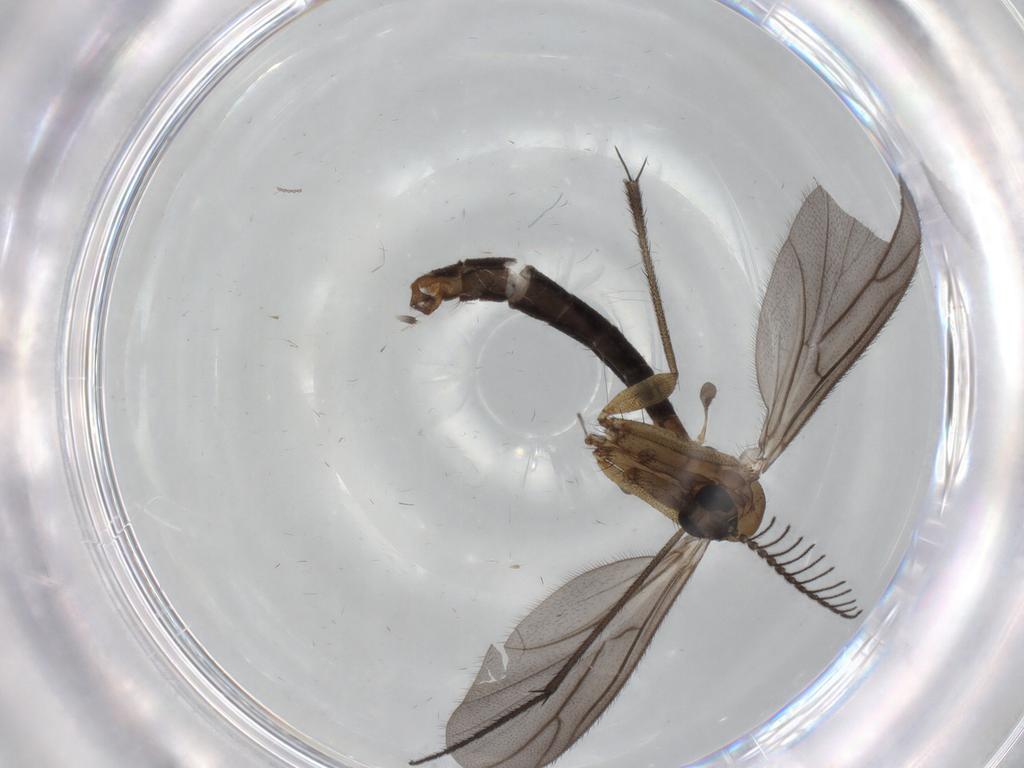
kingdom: Animalia
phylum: Arthropoda
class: Insecta
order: Diptera
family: Ditomyiidae
